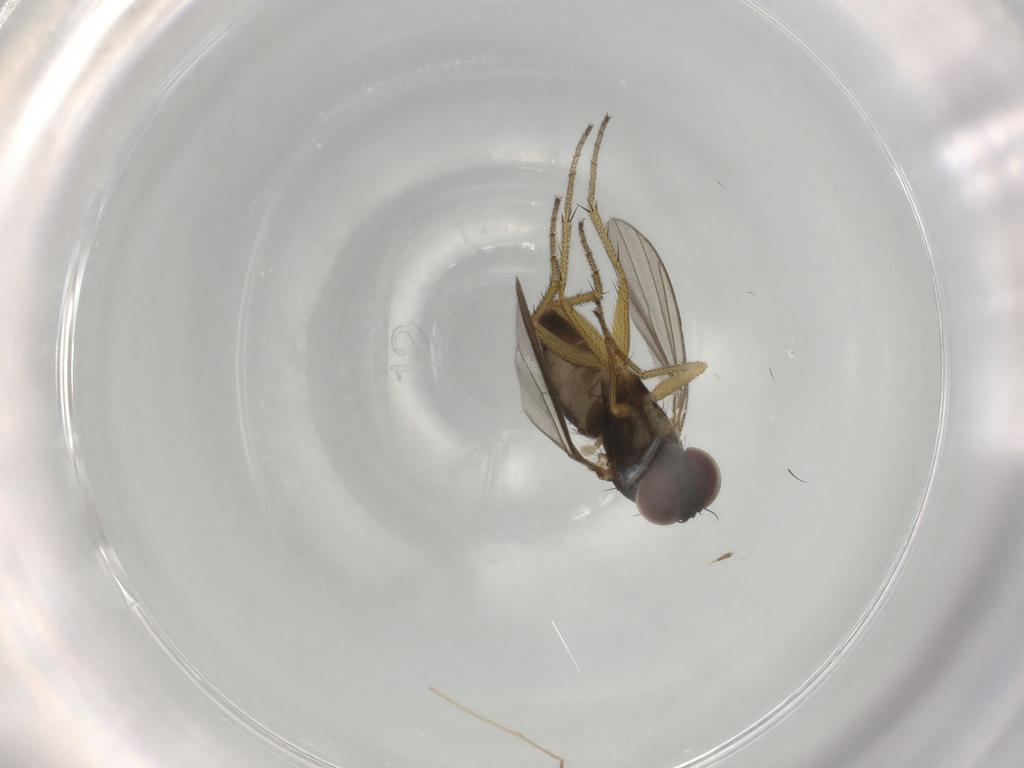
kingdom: Animalia
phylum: Arthropoda
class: Insecta
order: Diptera
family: Dolichopodidae
